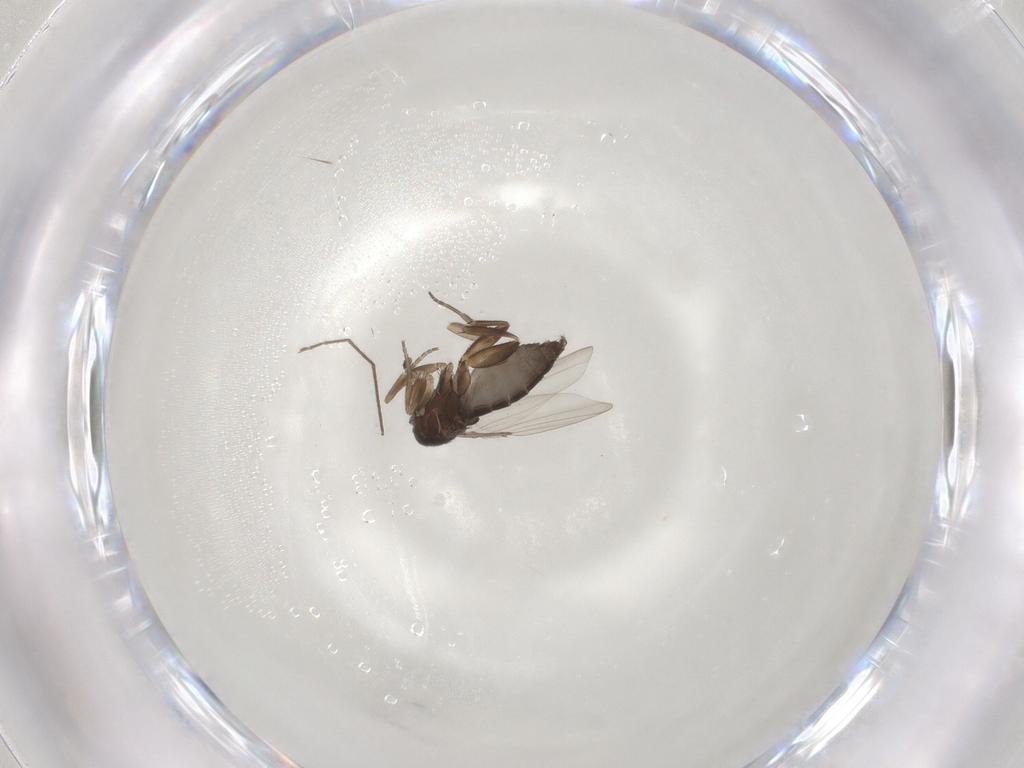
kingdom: Animalia
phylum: Arthropoda
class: Insecta
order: Diptera
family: Phoridae
